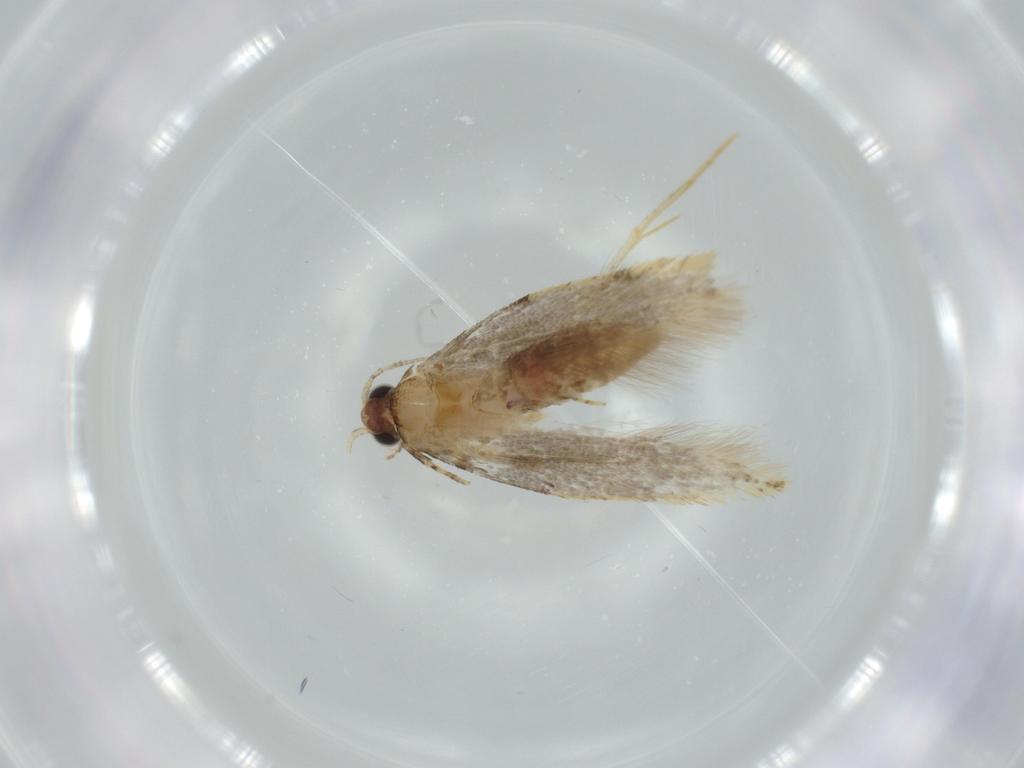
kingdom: Animalia
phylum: Arthropoda
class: Insecta
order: Lepidoptera
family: Tineidae
